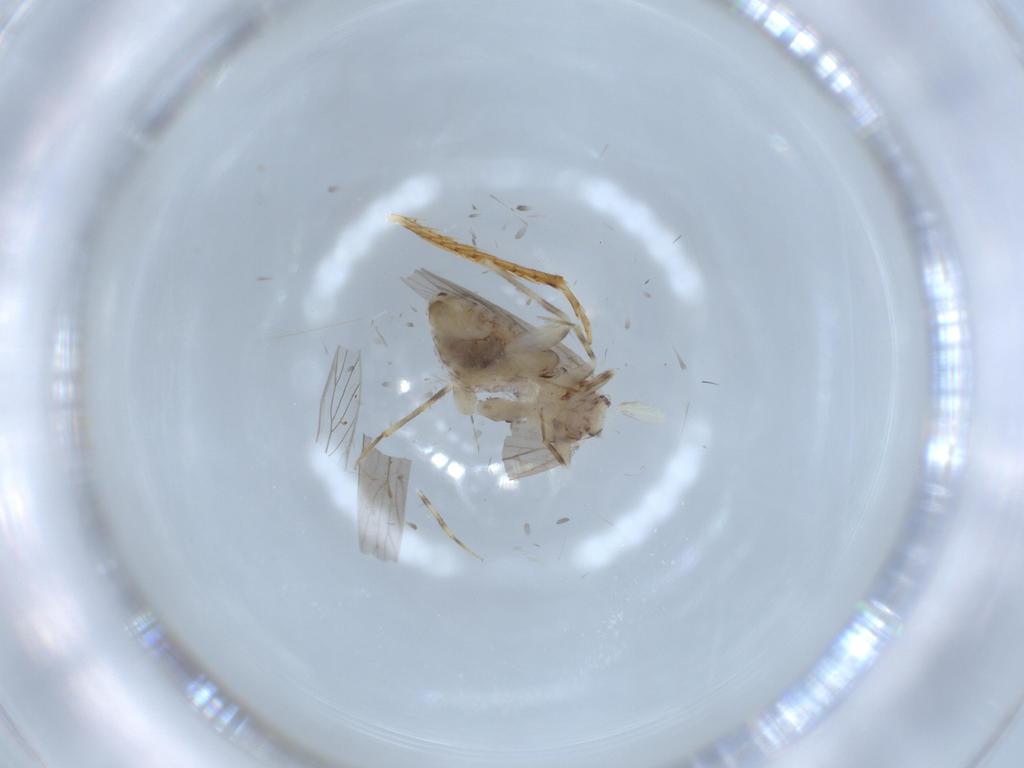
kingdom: Animalia
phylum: Arthropoda
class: Insecta
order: Psocodea
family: Lepidopsocidae
